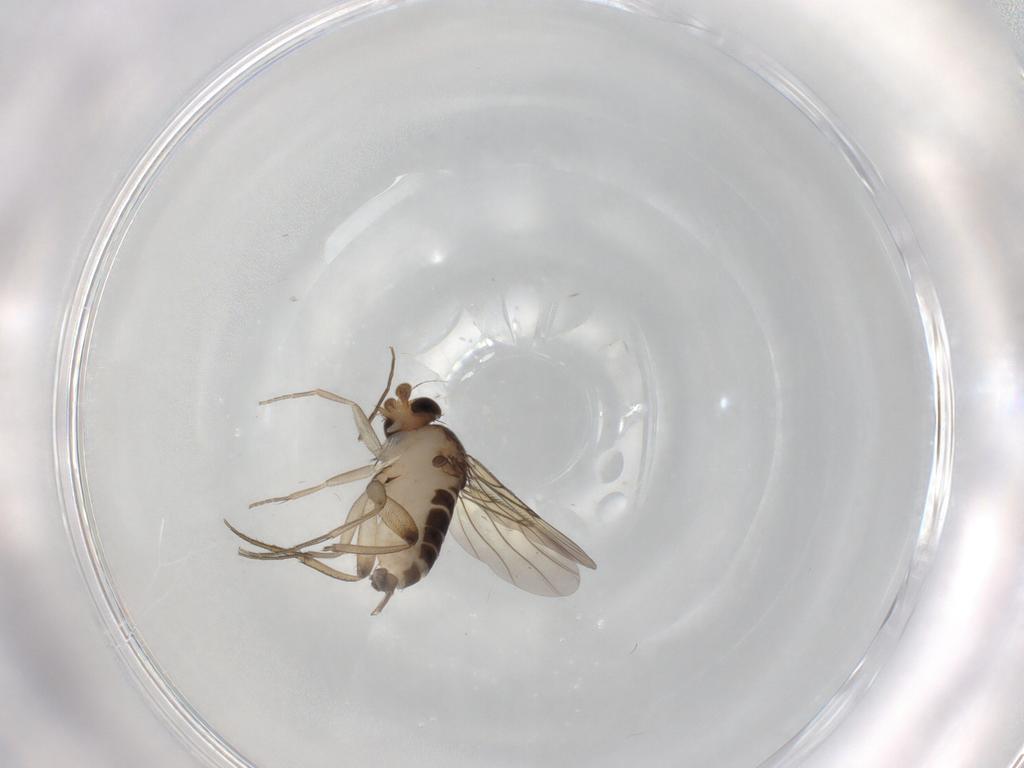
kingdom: Animalia
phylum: Arthropoda
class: Insecta
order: Diptera
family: Phoridae
